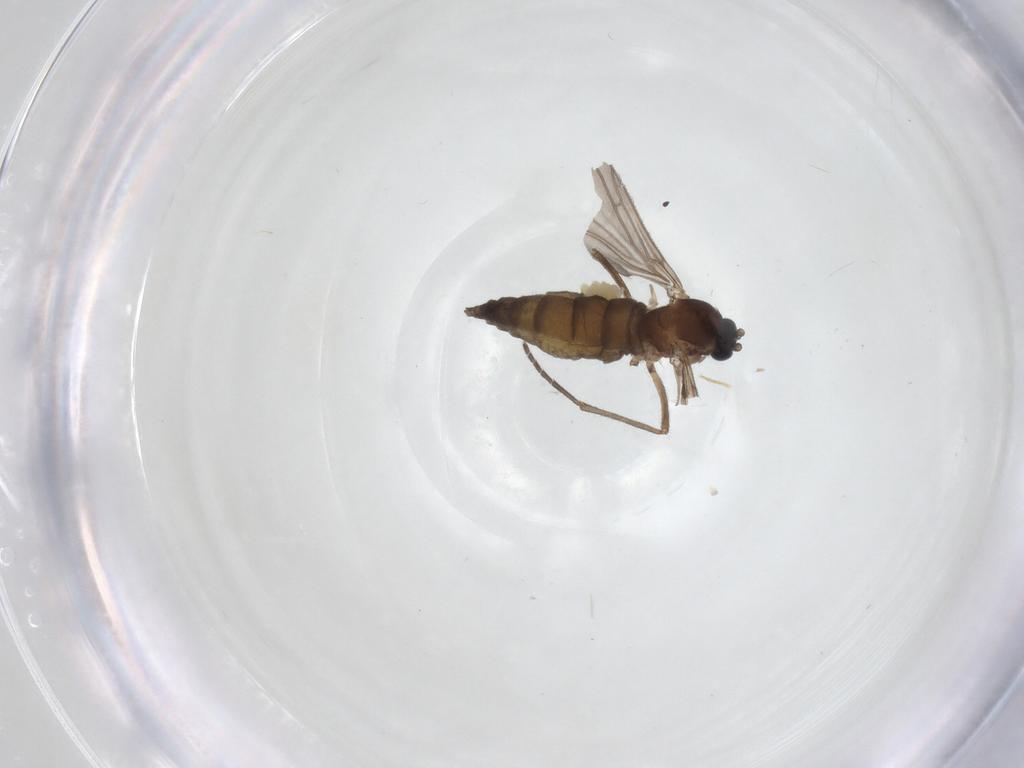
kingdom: Animalia
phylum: Arthropoda
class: Insecta
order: Diptera
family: Sciaridae
